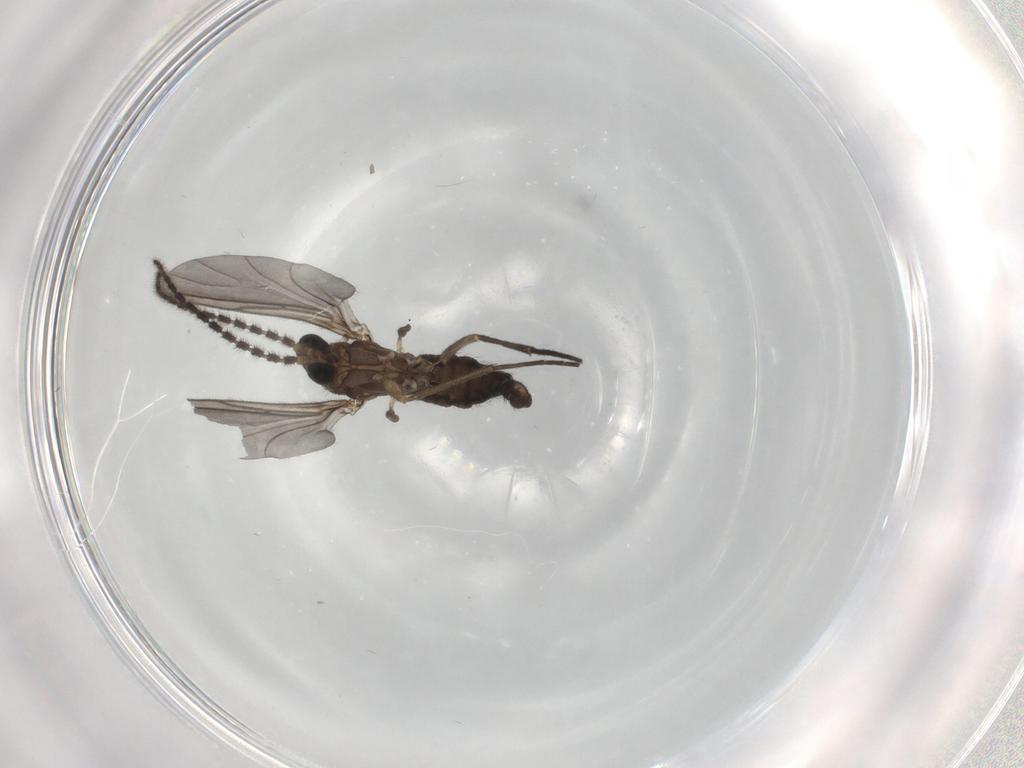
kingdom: Animalia
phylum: Arthropoda
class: Insecta
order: Diptera
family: Sciaridae
